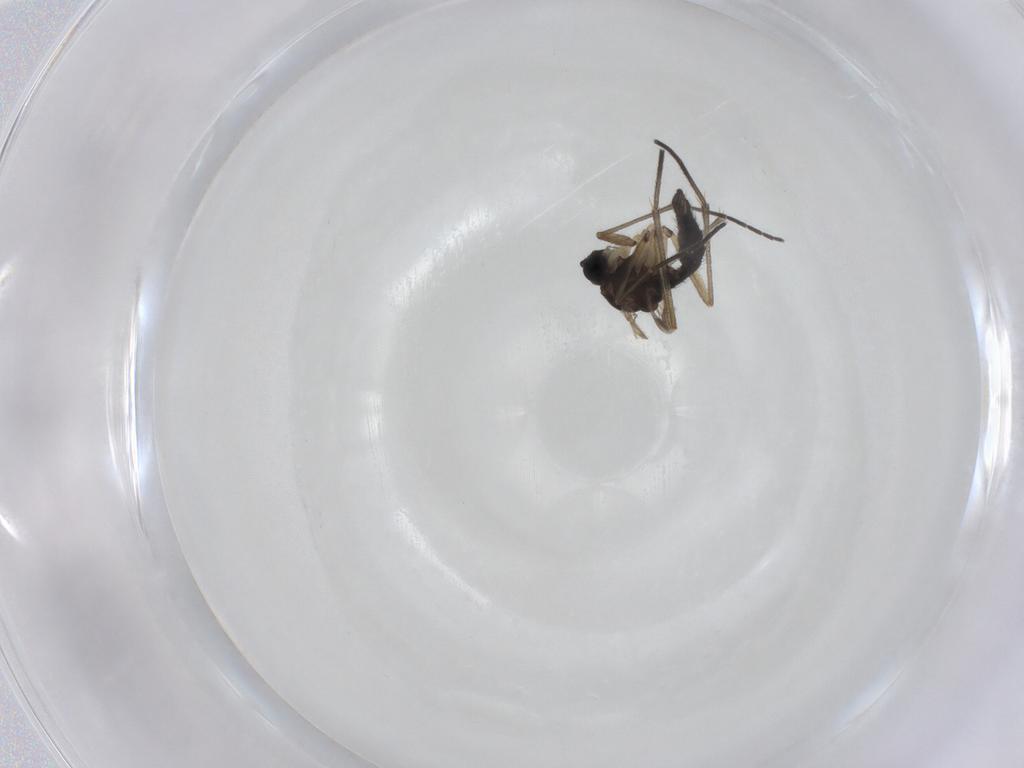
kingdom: Animalia
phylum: Arthropoda
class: Insecta
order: Diptera
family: Sciaridae
